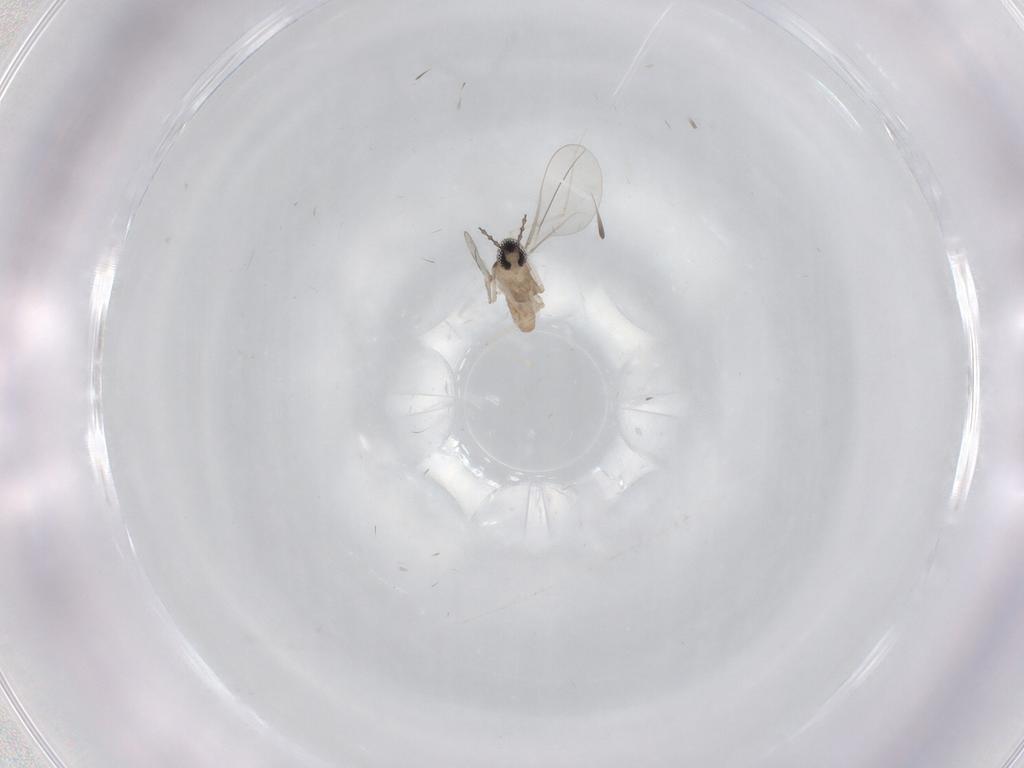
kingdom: Animalia
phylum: Arthropoda
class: Insecta
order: Diptera
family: Chironomidae
